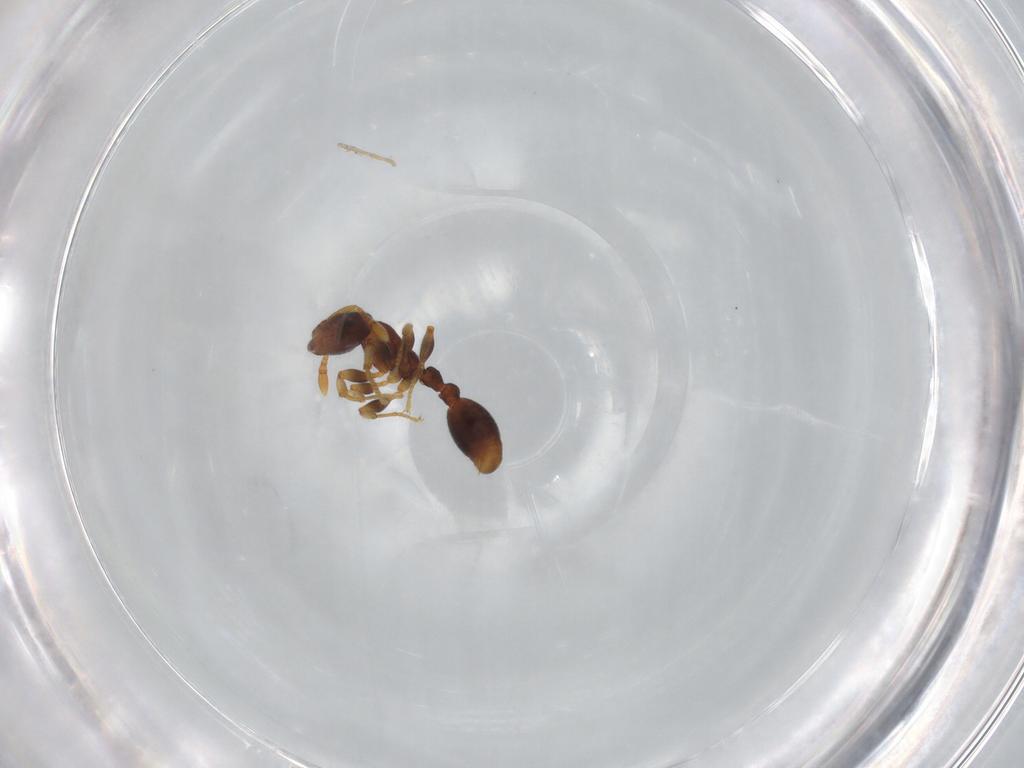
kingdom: Animalia
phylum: Arthropoda
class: Insecta
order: Hymenoptera
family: Formicidae
